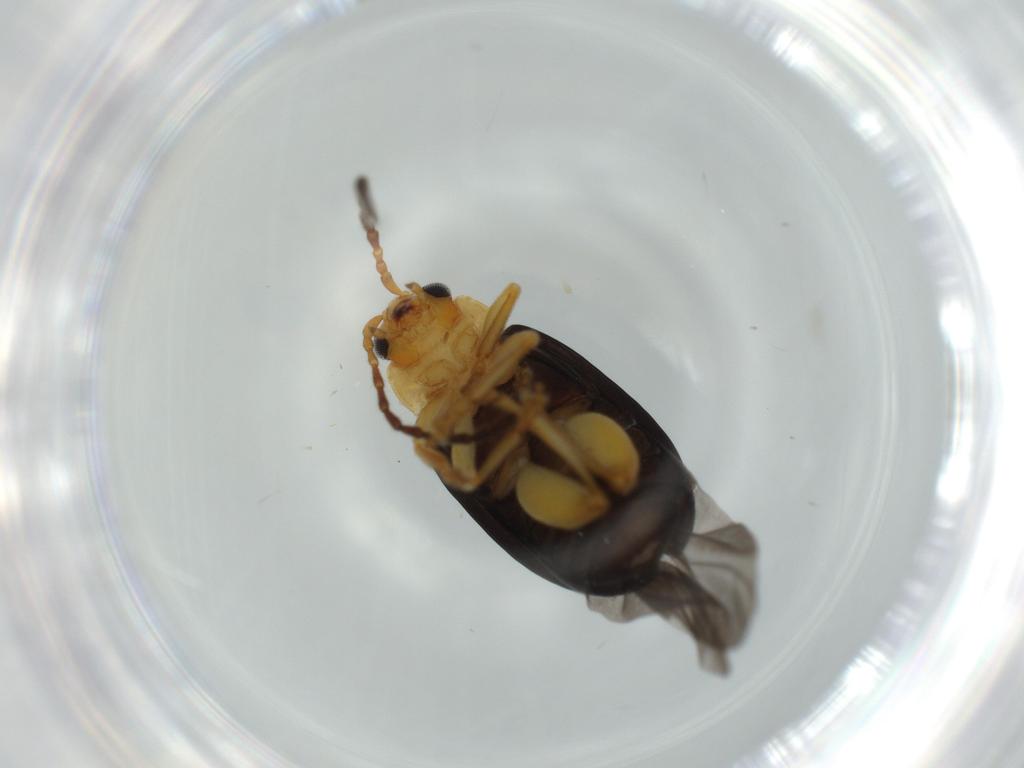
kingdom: Animalia
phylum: Arthropoda
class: Insecta
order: Coleoptera
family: Chrysomelidae
